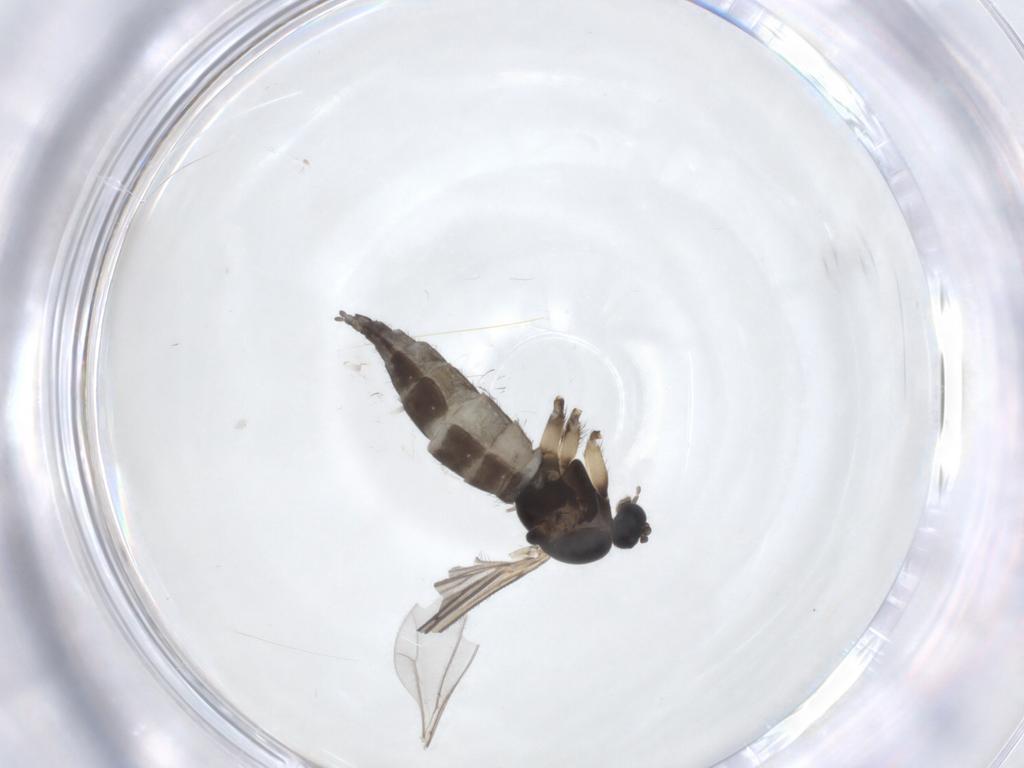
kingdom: Animalia
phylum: Arthropoda
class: Insecta
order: Diptera
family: Sciaridae
